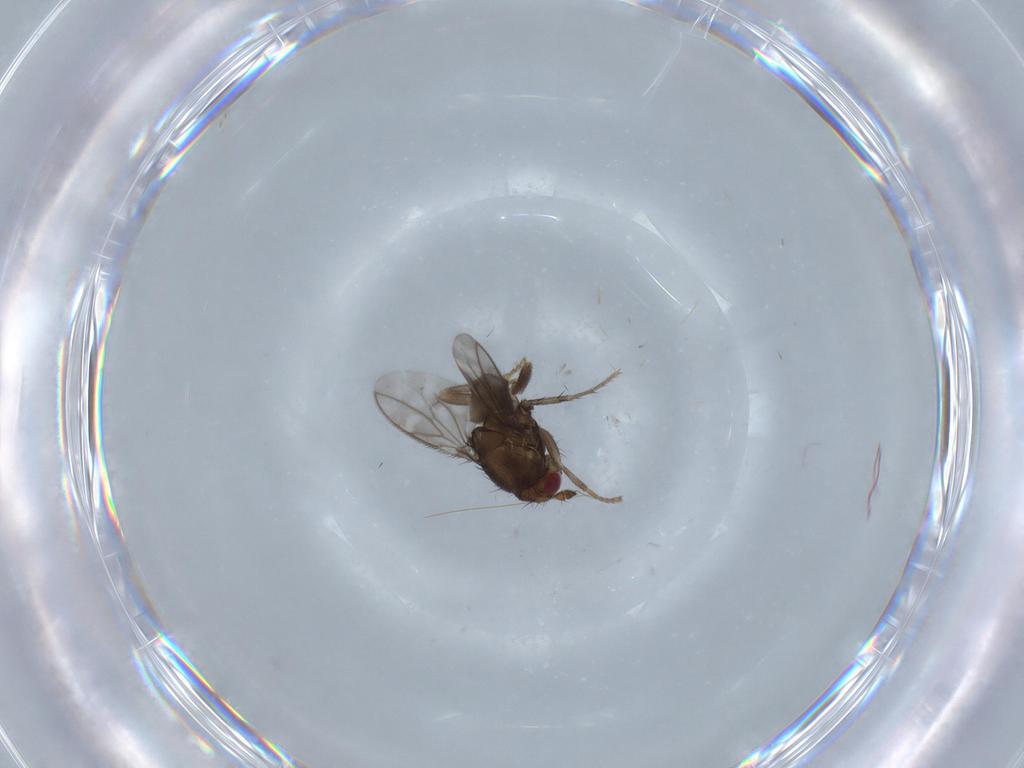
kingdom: Animalia
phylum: Arthropoda
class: Insecta
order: Diptera
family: Sphaeroceridae
